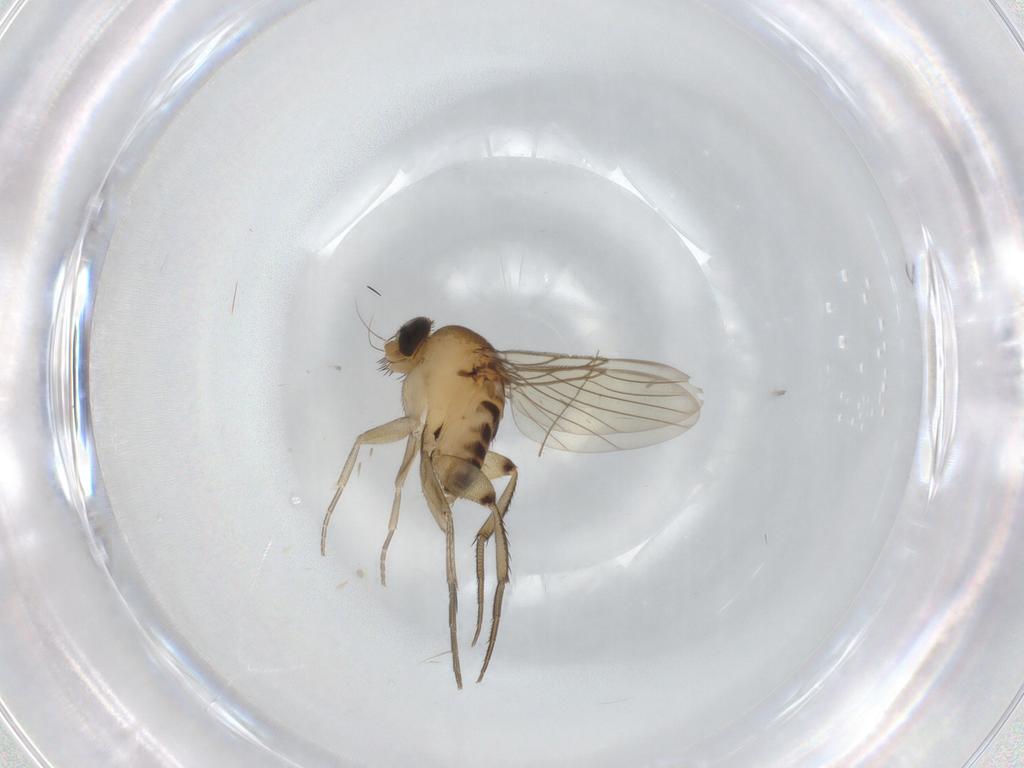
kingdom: Animalia
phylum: Arthropoda
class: Insecta
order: Diptera
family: Phoridae
